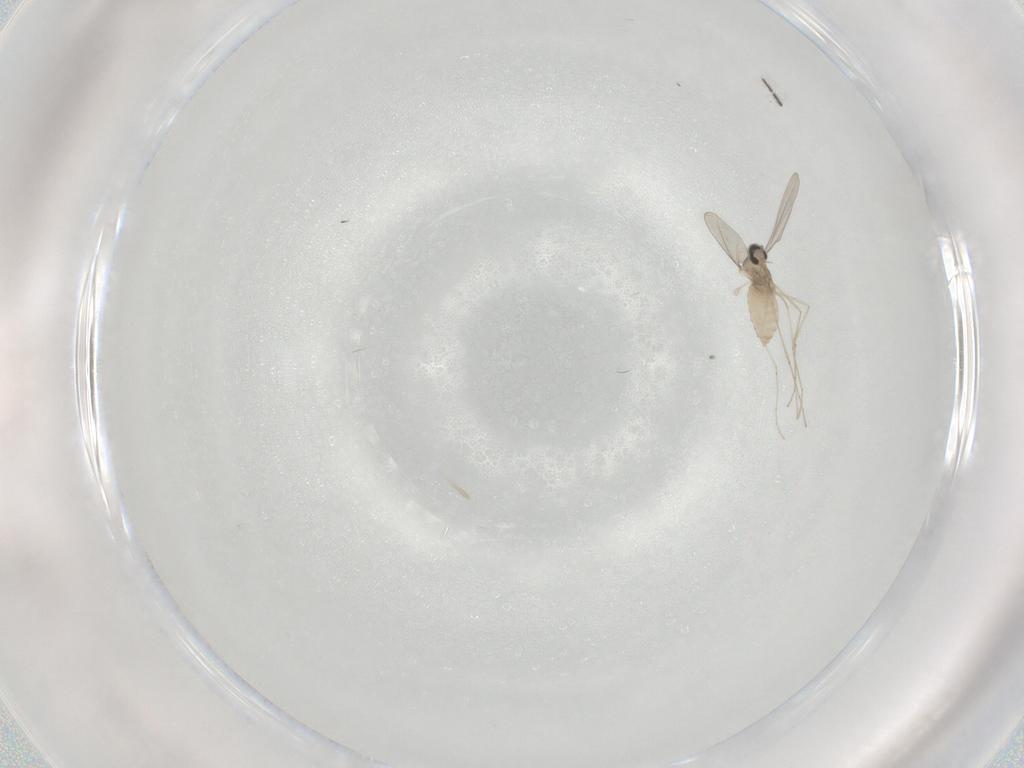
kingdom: Animalia
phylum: Arthropoda
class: Insecta
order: Diptera
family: Cecidomyiidae
